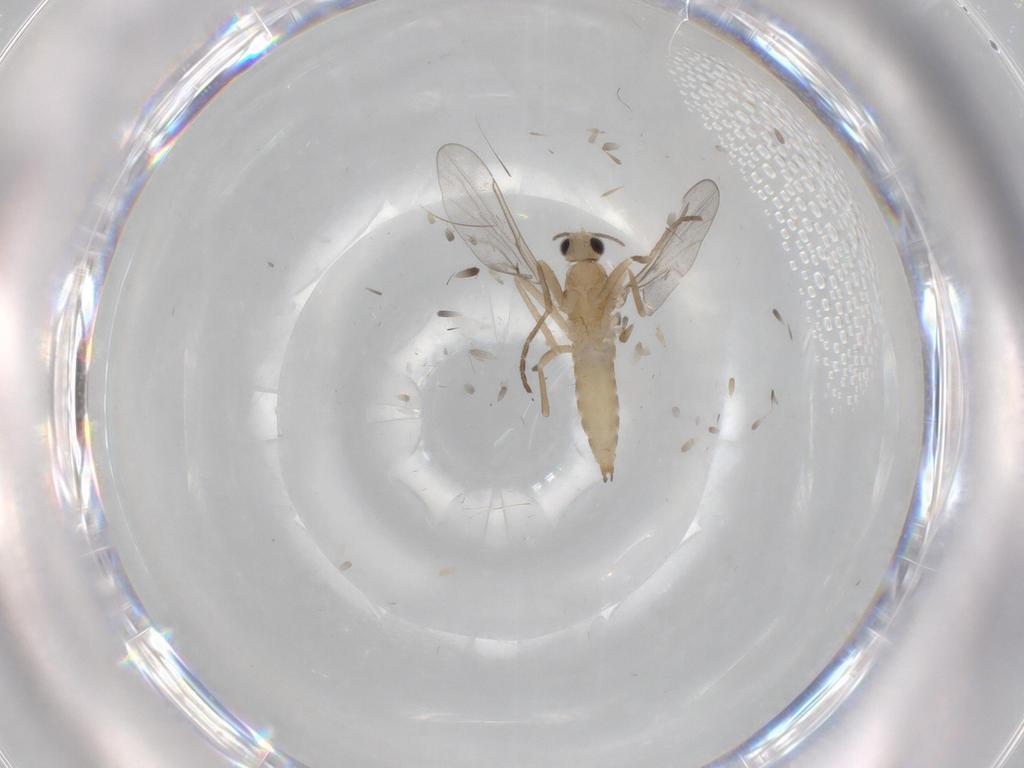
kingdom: Animalia
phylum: Arthropoda
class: Insecta
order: Diptera
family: Cecidomyiidae
